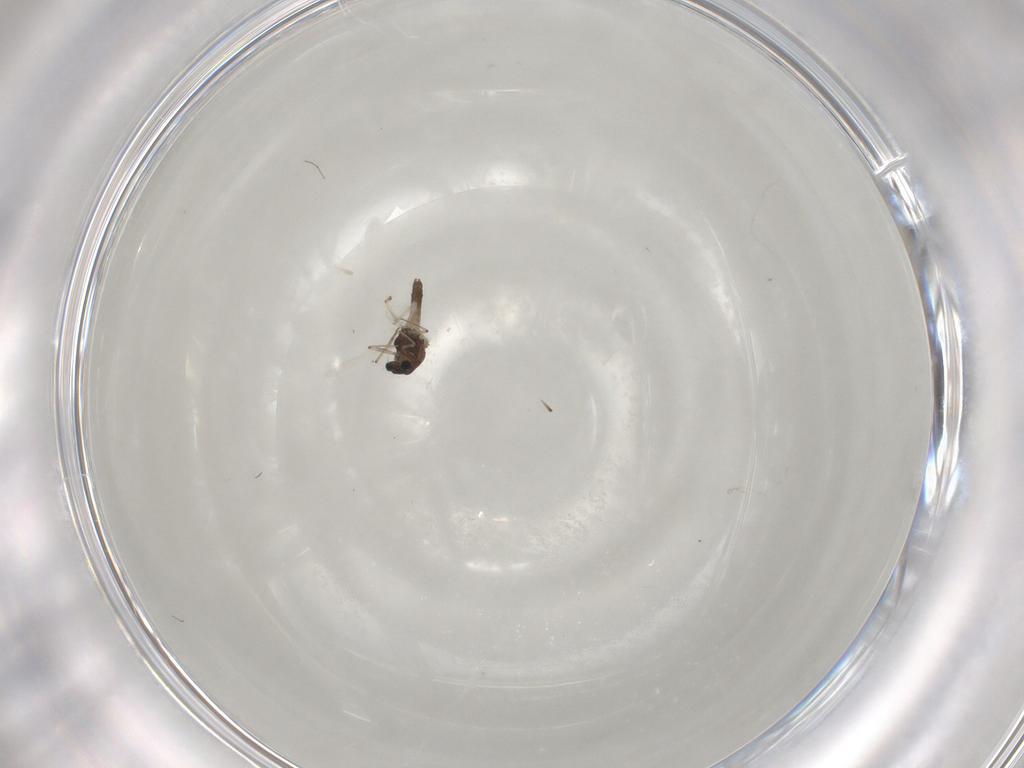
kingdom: Animalia
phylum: Arthropoda
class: Insecta
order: Diptera
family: Chironomidae
